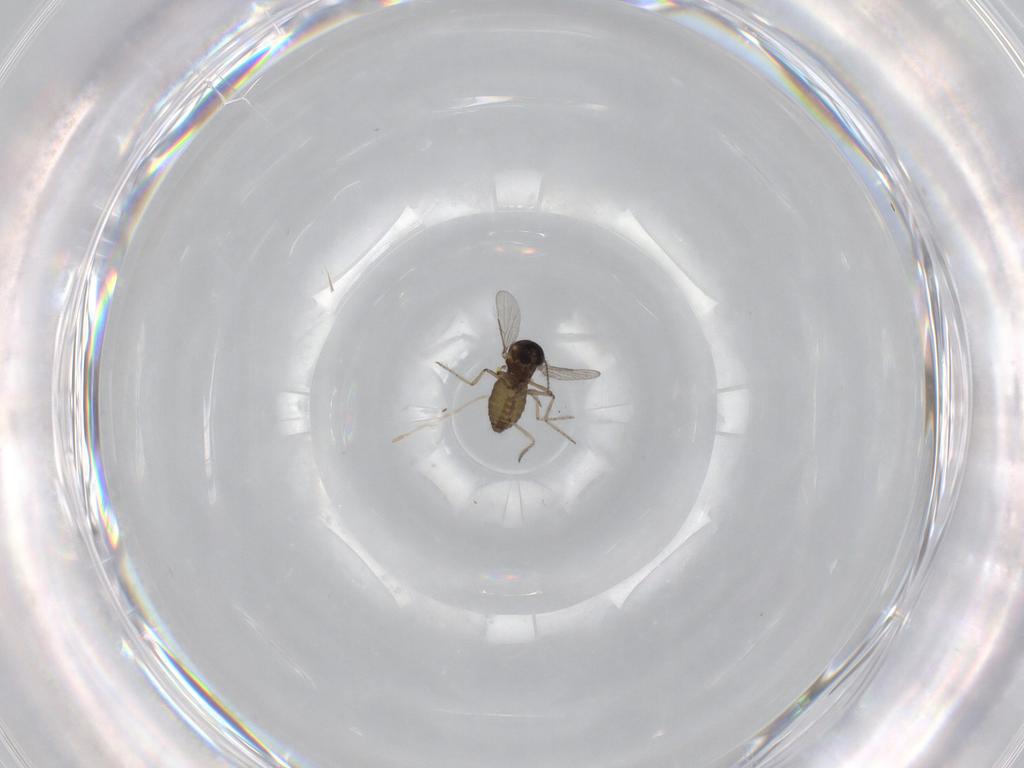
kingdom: Animalia
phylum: Arthropoda
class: Insecta
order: Diptera
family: Ceratopogonidae
